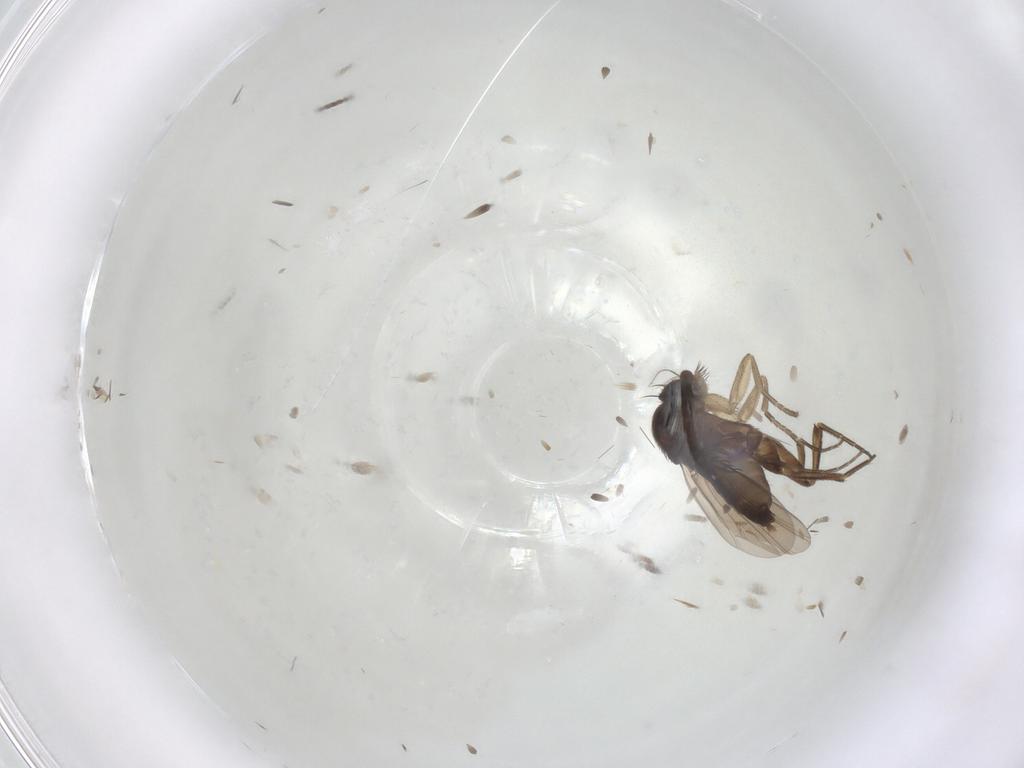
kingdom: Animalia
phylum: Arthropoda
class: Insecta
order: Diptera
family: Phoridae
